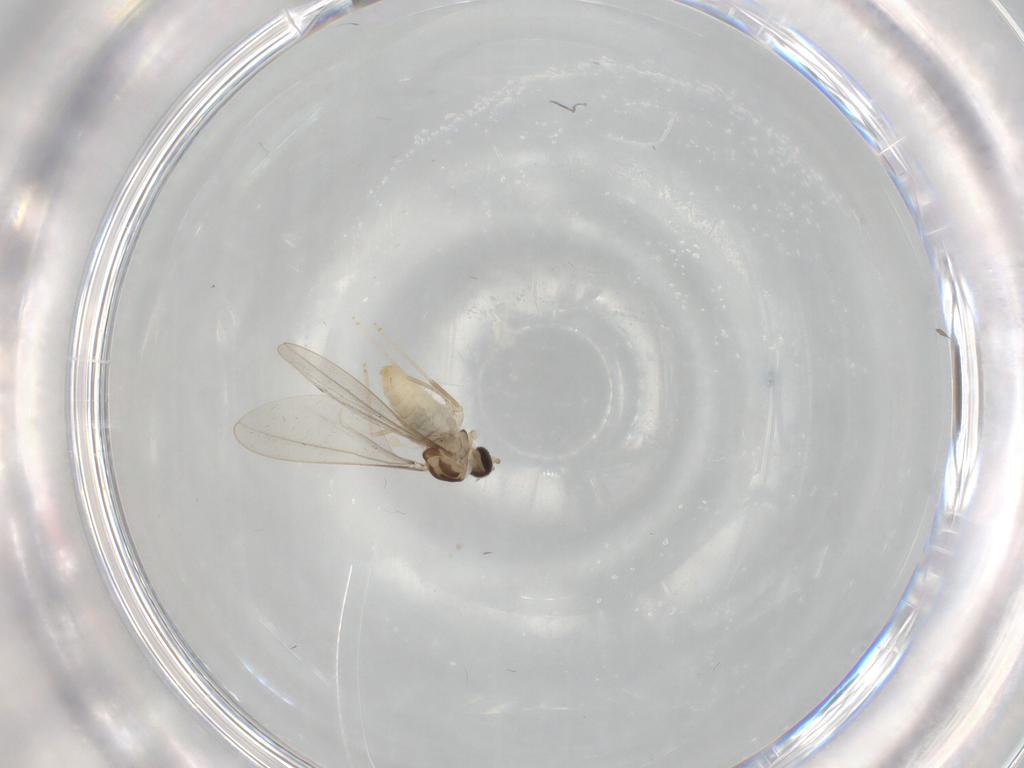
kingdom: Animalia
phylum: Arthropoda
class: Insecta
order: Diptera
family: Cecidomyiidae
